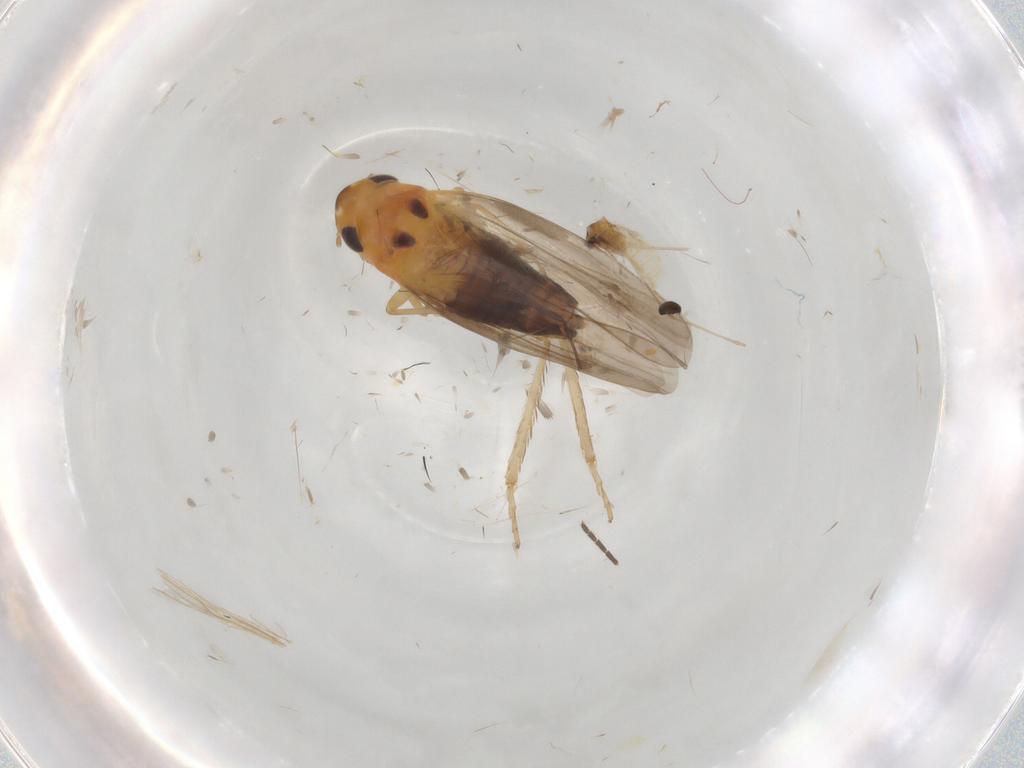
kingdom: Animalia
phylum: Arthropoda
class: Insecta
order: Hemiptera
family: Cicadellidae
